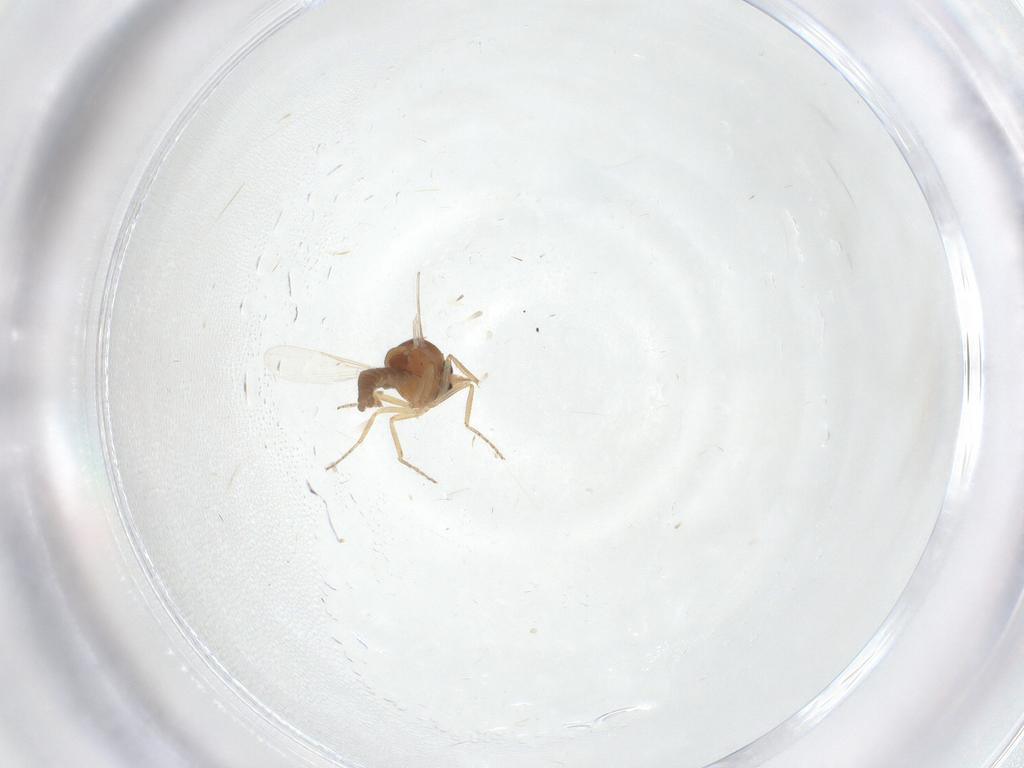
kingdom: Animalia
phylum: Arthropoda
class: Insecta
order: Diptera
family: Ceratopogonidae
